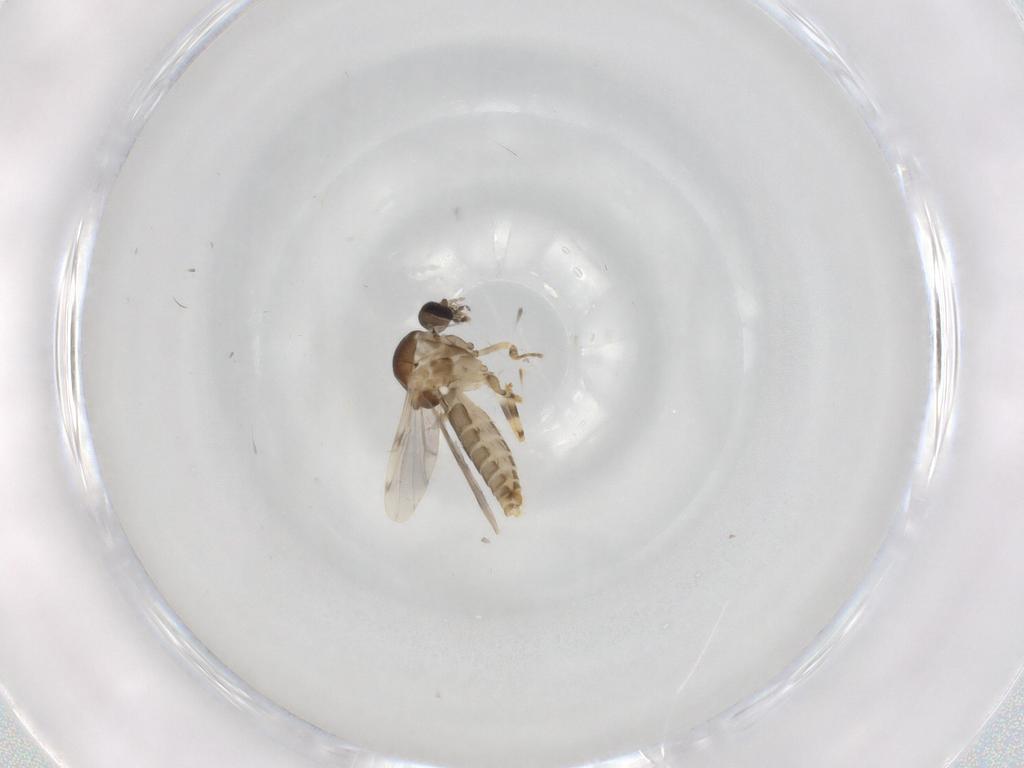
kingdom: Animalia
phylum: Arthropoda
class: Insecta
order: Diptera
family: Ceratopogonidae
